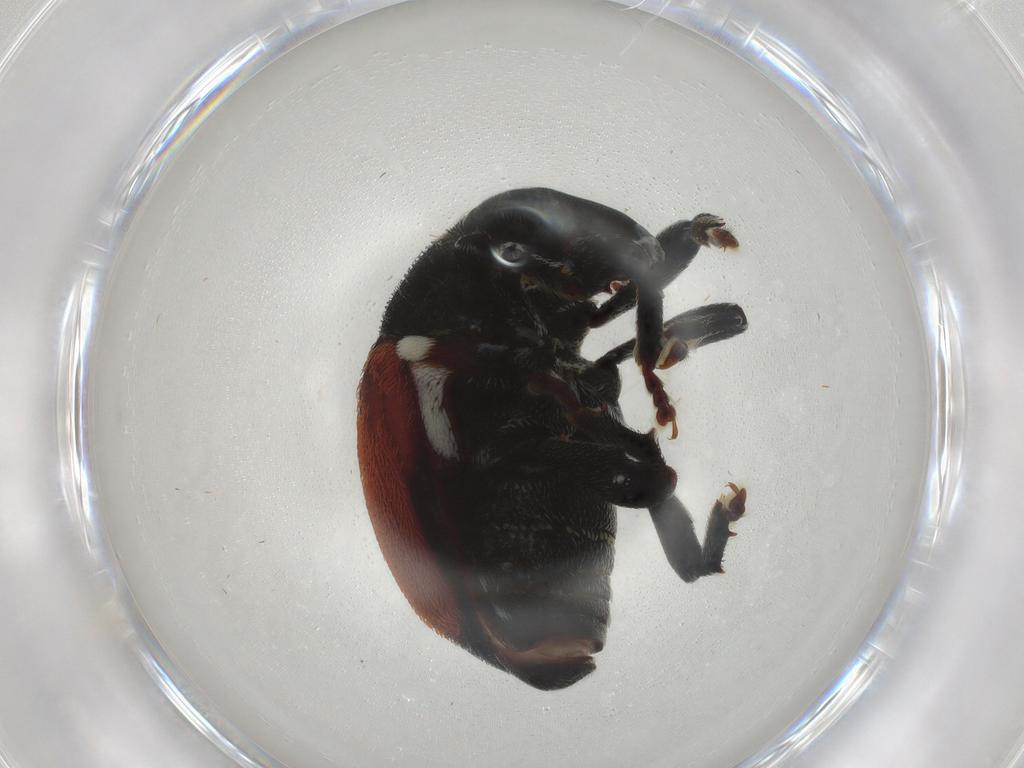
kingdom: Animalia
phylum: Arthropoda
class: Insecta
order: Coleoptera
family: Curculionidae
